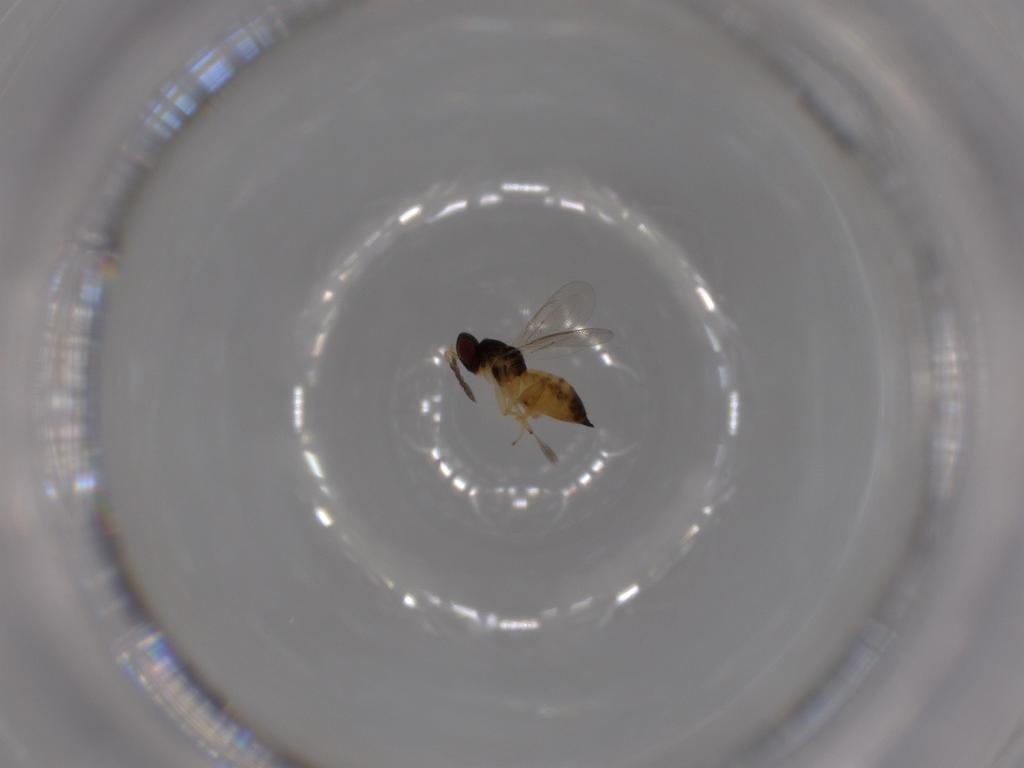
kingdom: Animalia
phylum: Arthropoda
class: Insecta
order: Hymenoptera
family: Eulophidae
